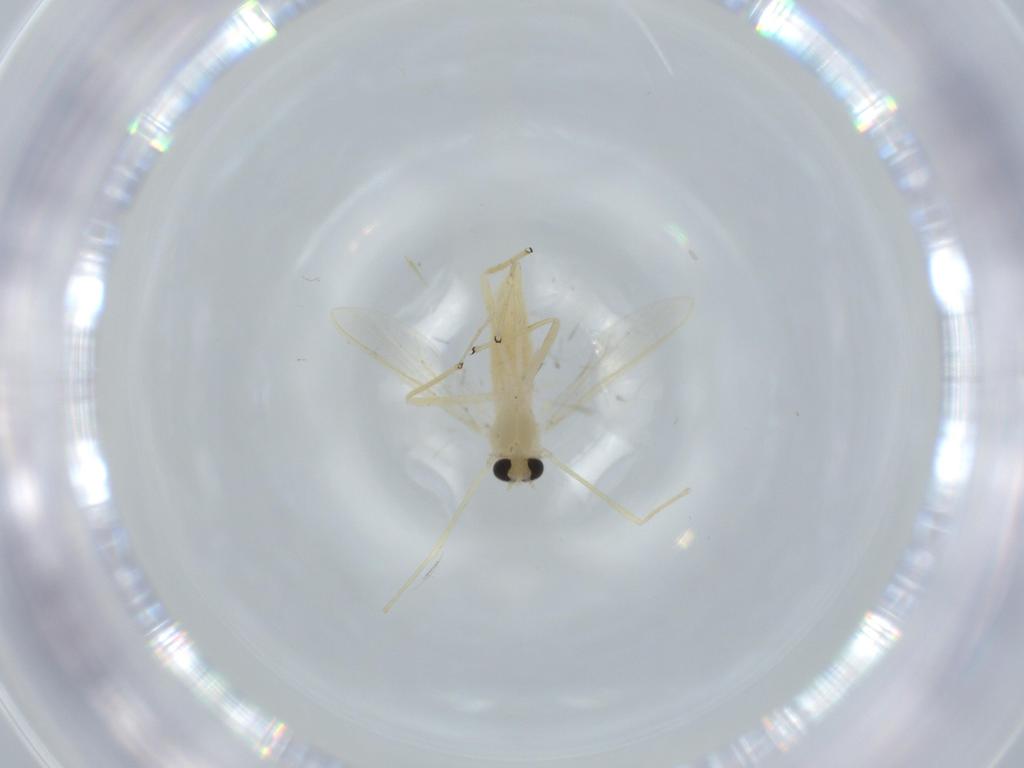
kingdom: Animalia
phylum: Arthropoda
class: Insecta
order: Diptera
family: Chironomidae
